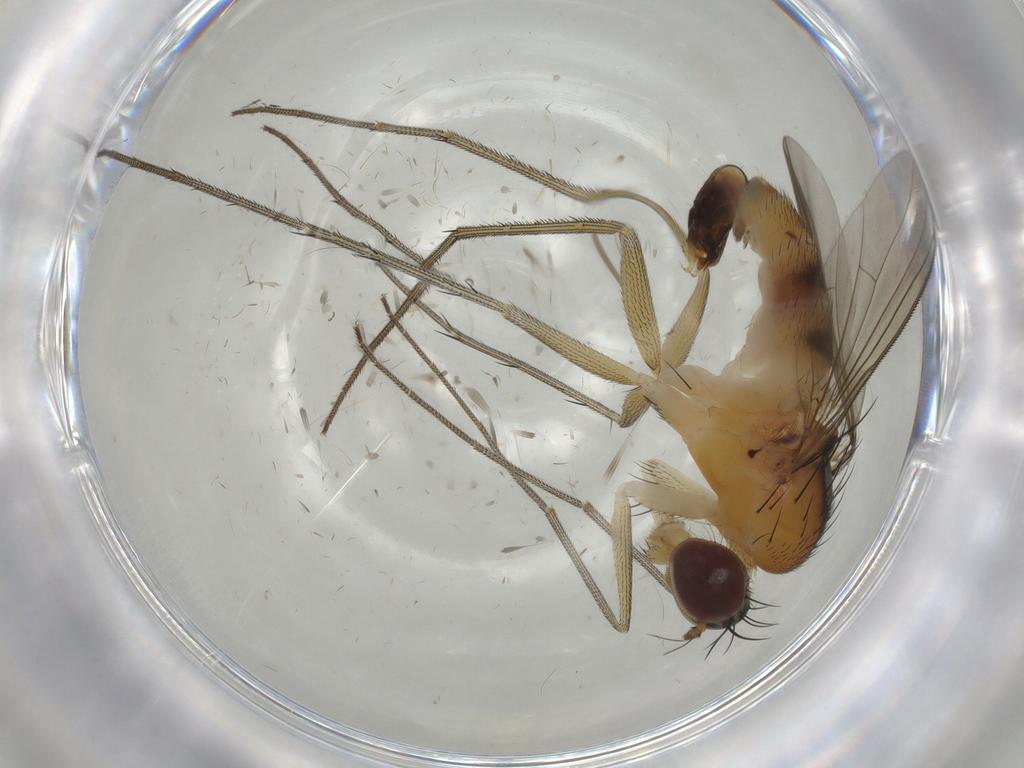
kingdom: Animalia
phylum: Arthropoda
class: Insecta
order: Diptera
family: Dolichopodidae
